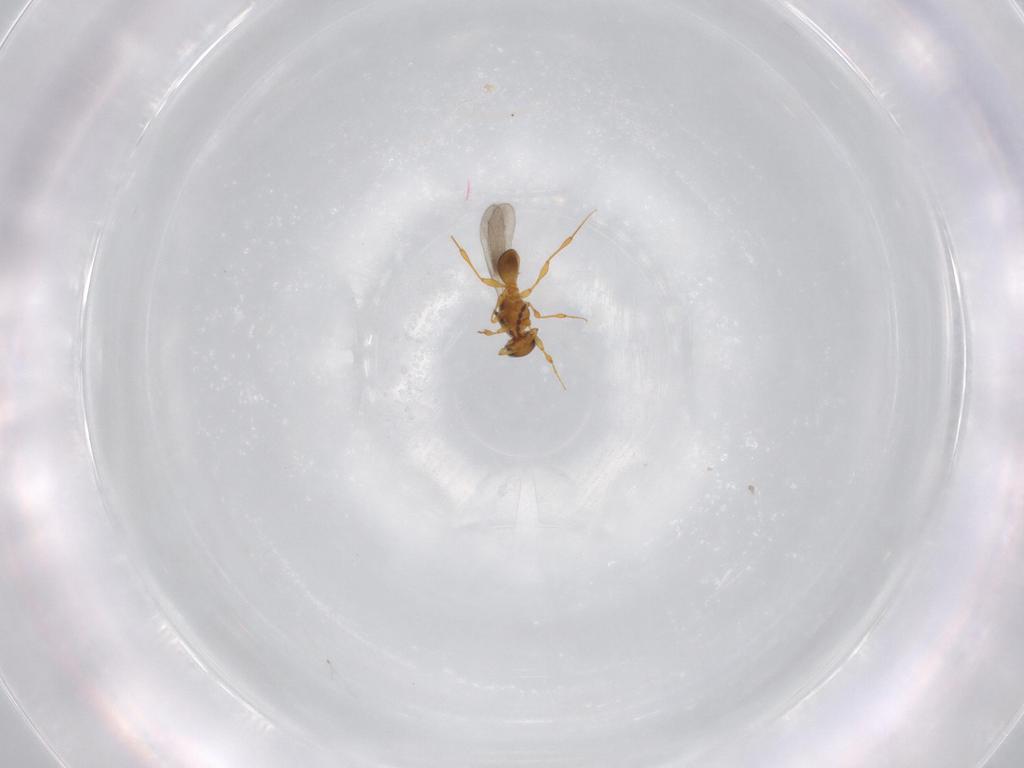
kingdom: Animalia
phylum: Arthropoda
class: Insecta
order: Hymenoptera
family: Platygastridae
